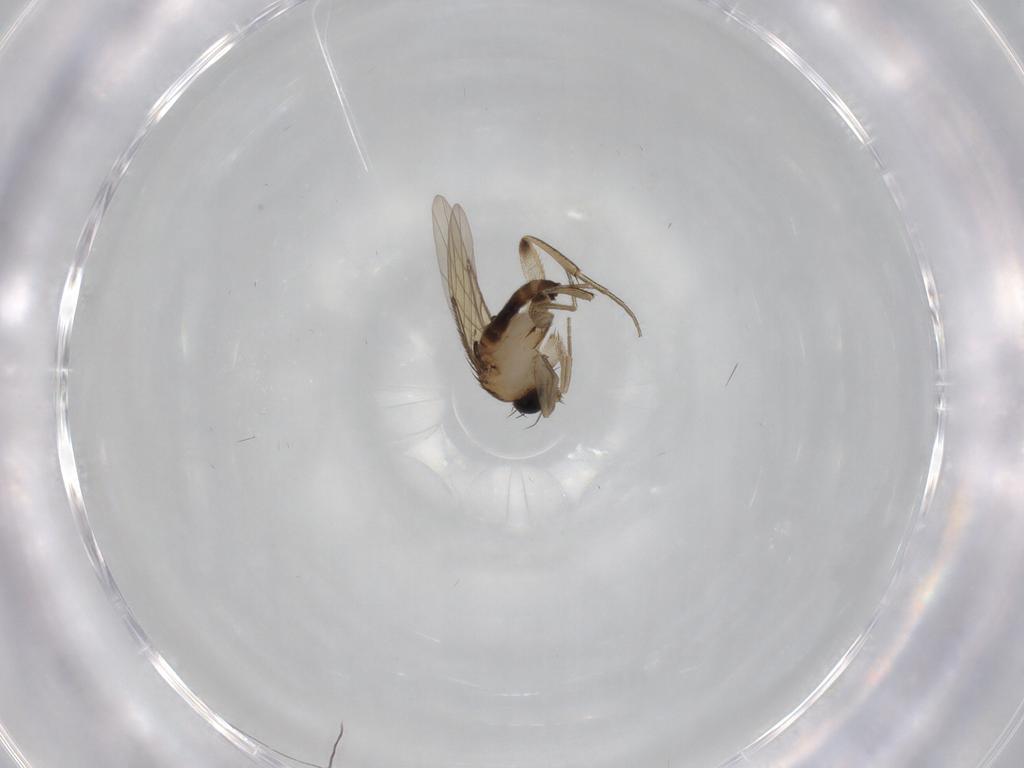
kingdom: Animalia
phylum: Arthropoda
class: Insecta
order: Diptera
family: Phoridae
